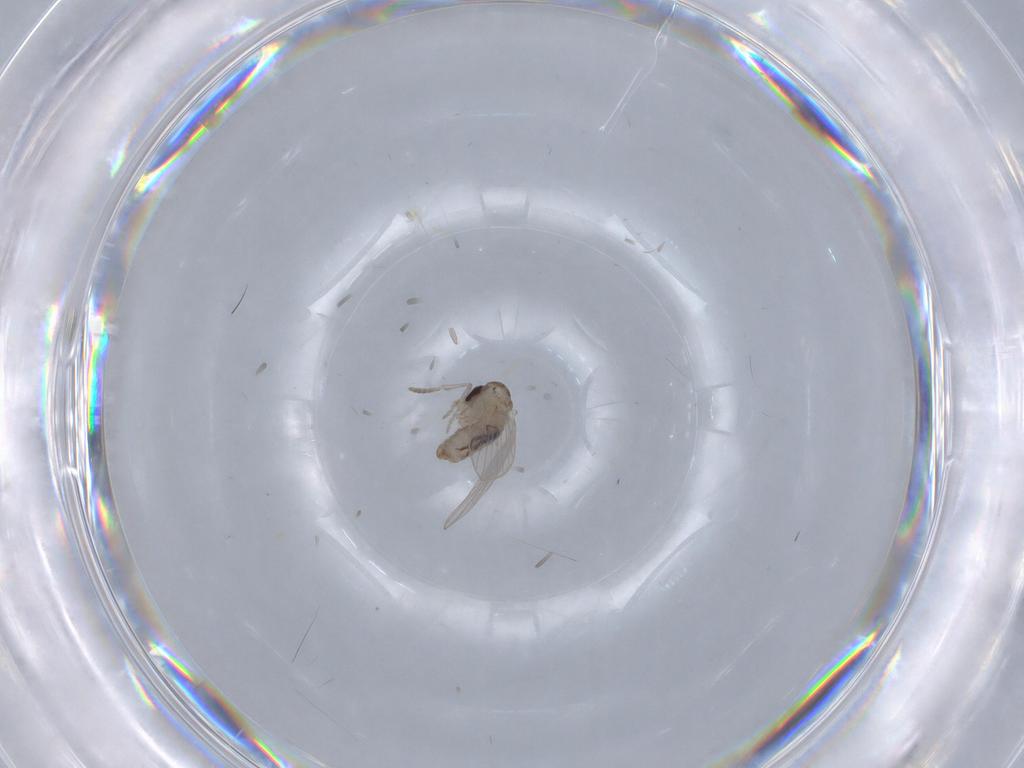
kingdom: Animalia
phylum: Arthropoda
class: Insecta
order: Diptera
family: Psychodidae
